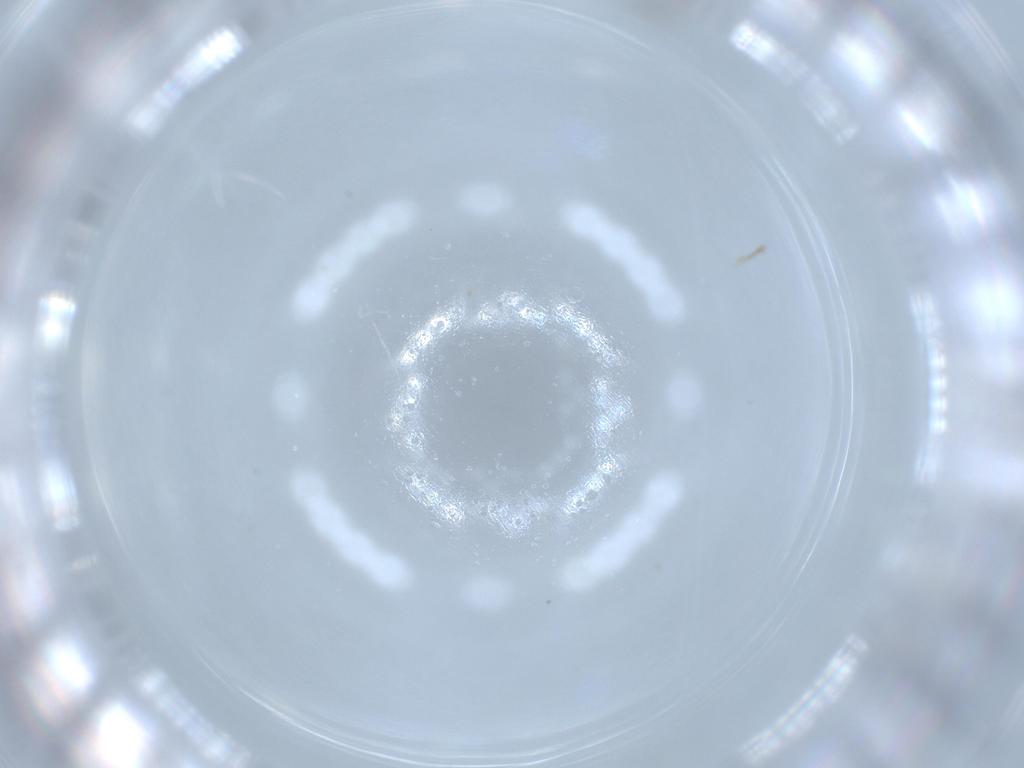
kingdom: Animalia
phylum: Arthropoda
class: Insecta
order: Diptera
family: Cecidomyiidae
